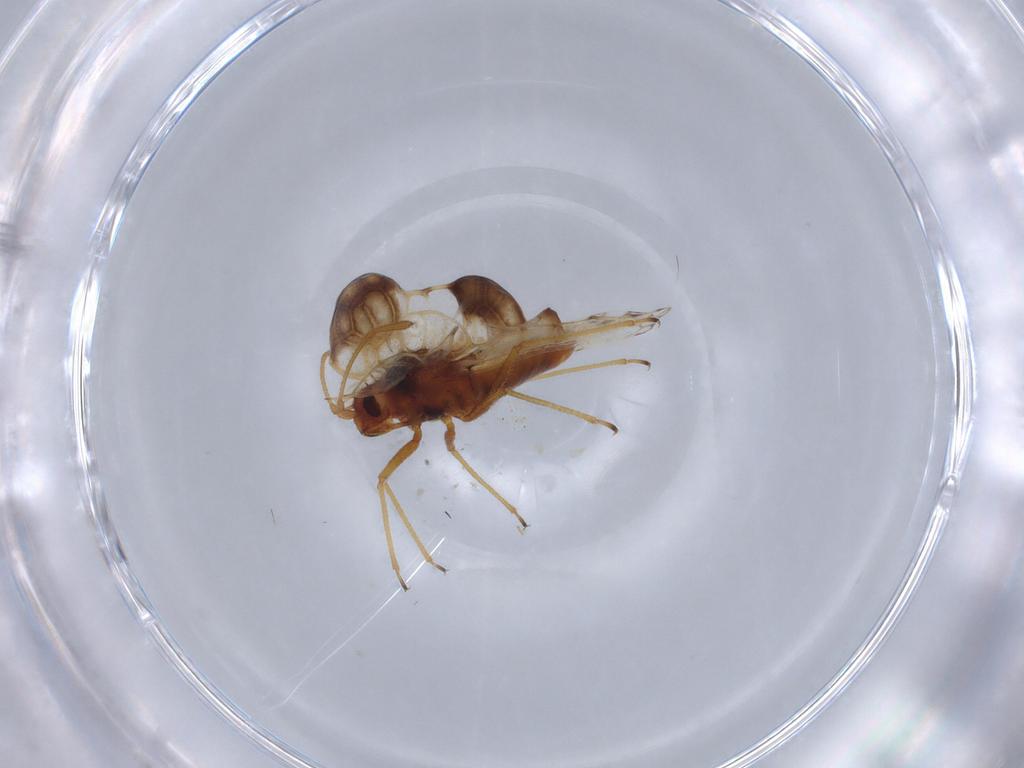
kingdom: Animalia
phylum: Arthropoda
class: Insecta
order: Hemiptera
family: Tingidae
